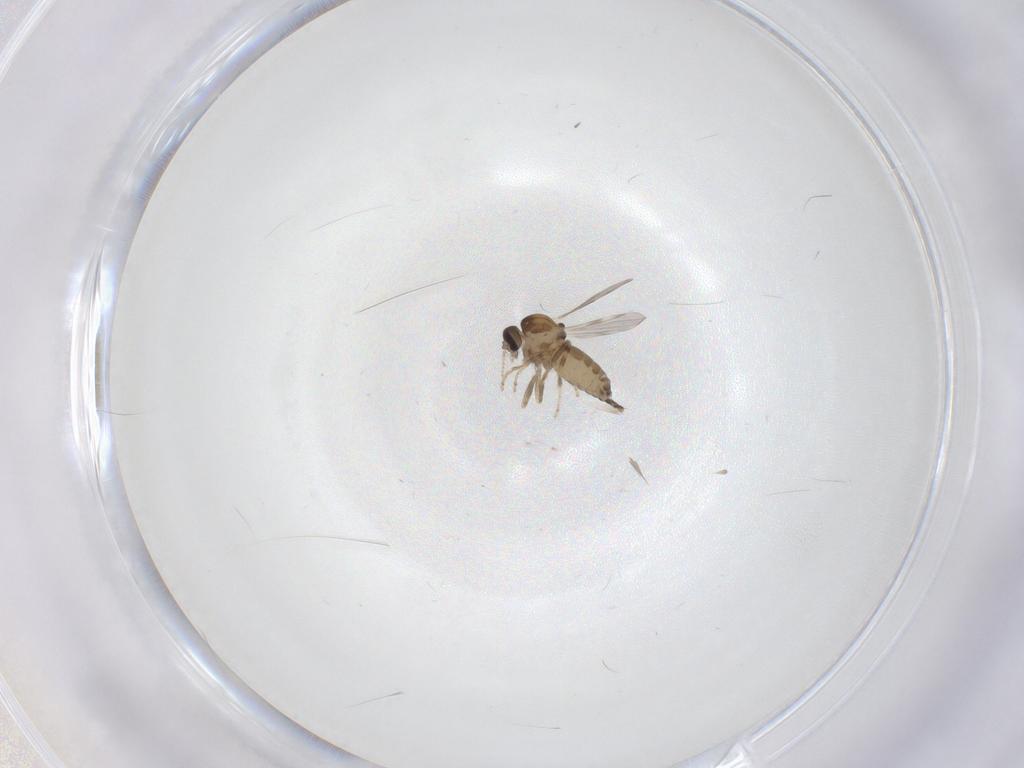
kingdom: Animalia
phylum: Arthropoda
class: Insecta
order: Diptera
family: Ceratopogonidae
